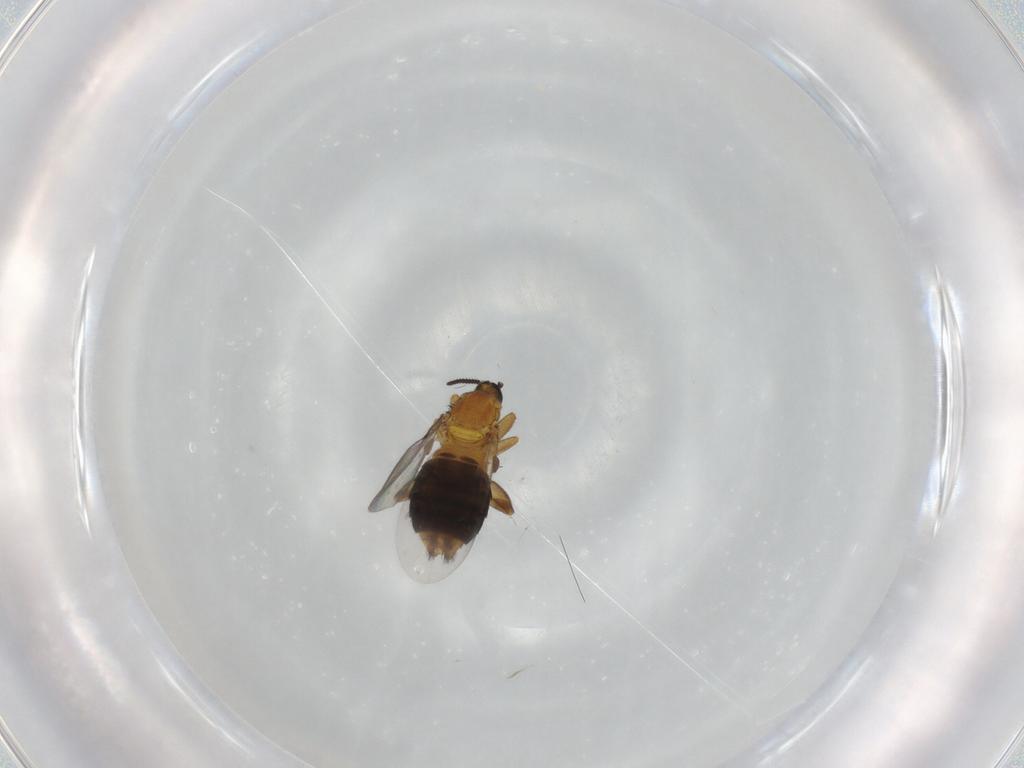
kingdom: Animalia
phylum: Arthropoda
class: Insecta
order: Diptera
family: Scatopsidae
